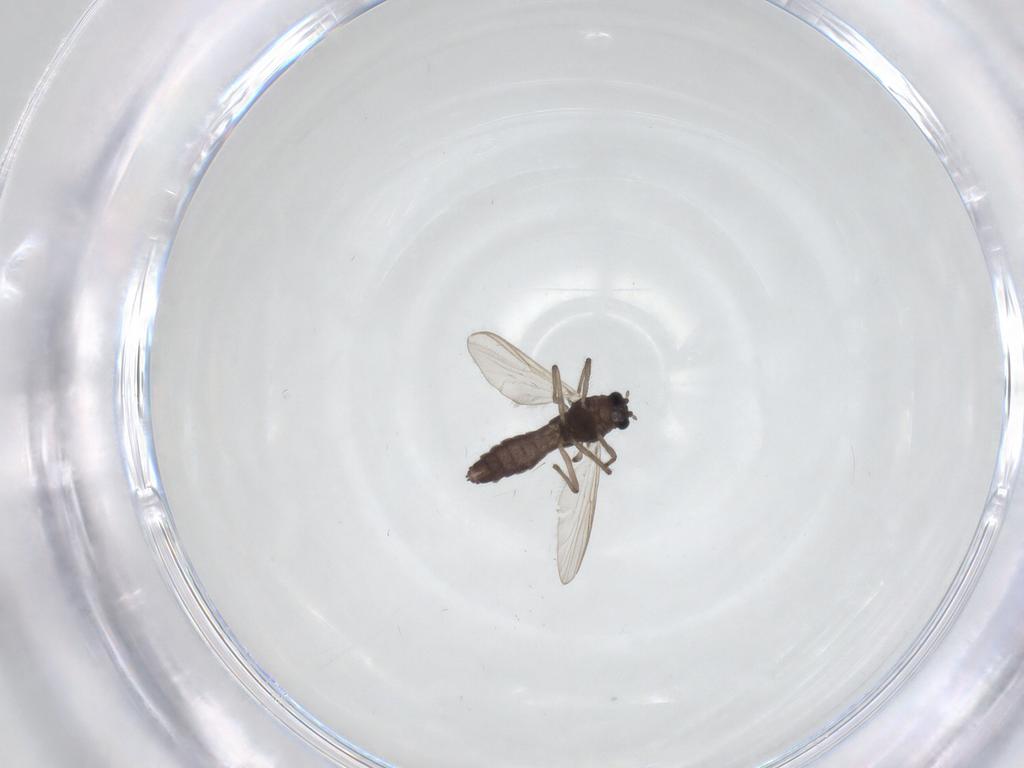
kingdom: Animalia
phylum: Arthropoda
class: Insecta
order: Diptera
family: Chironomidae
